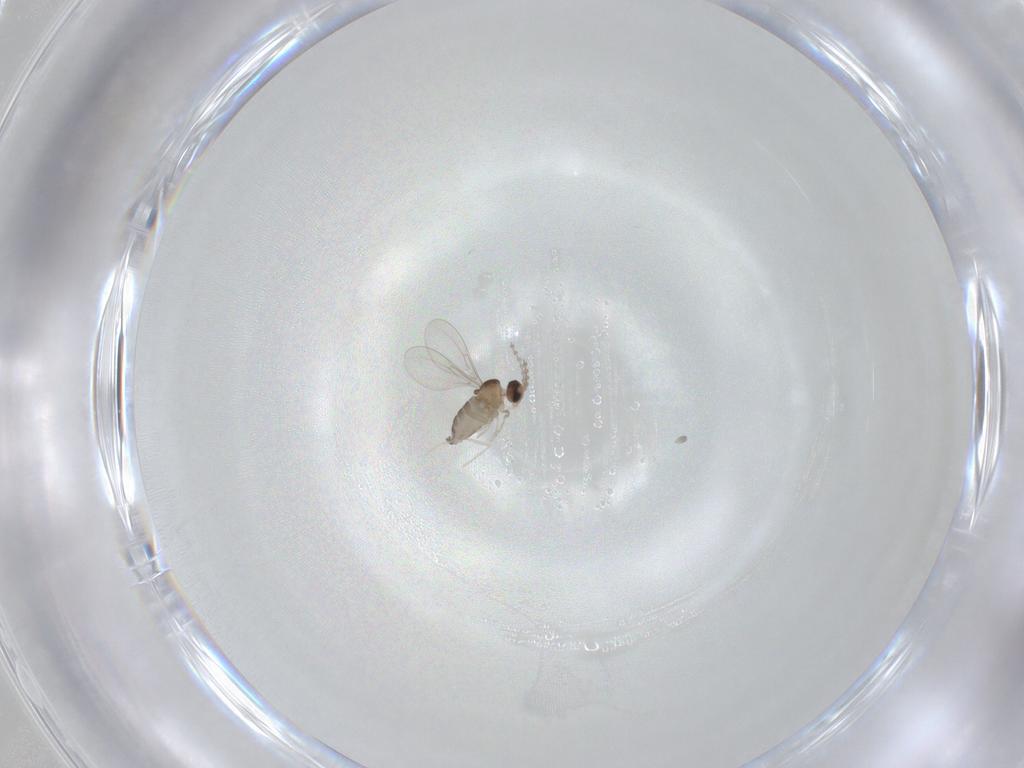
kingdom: Animalia
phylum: Arthropoda
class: Insecta
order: Diptera
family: Cecidomyiidae
